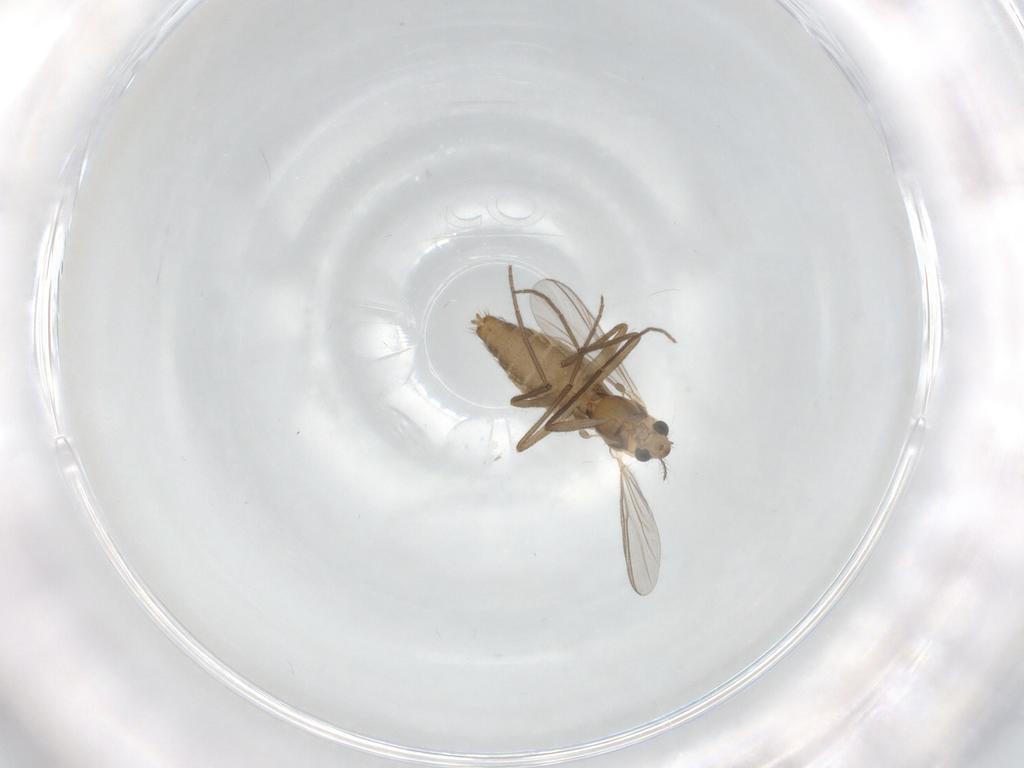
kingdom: Animalia
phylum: Arthropoda
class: Insecta
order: Diptera
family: Chironomidae
